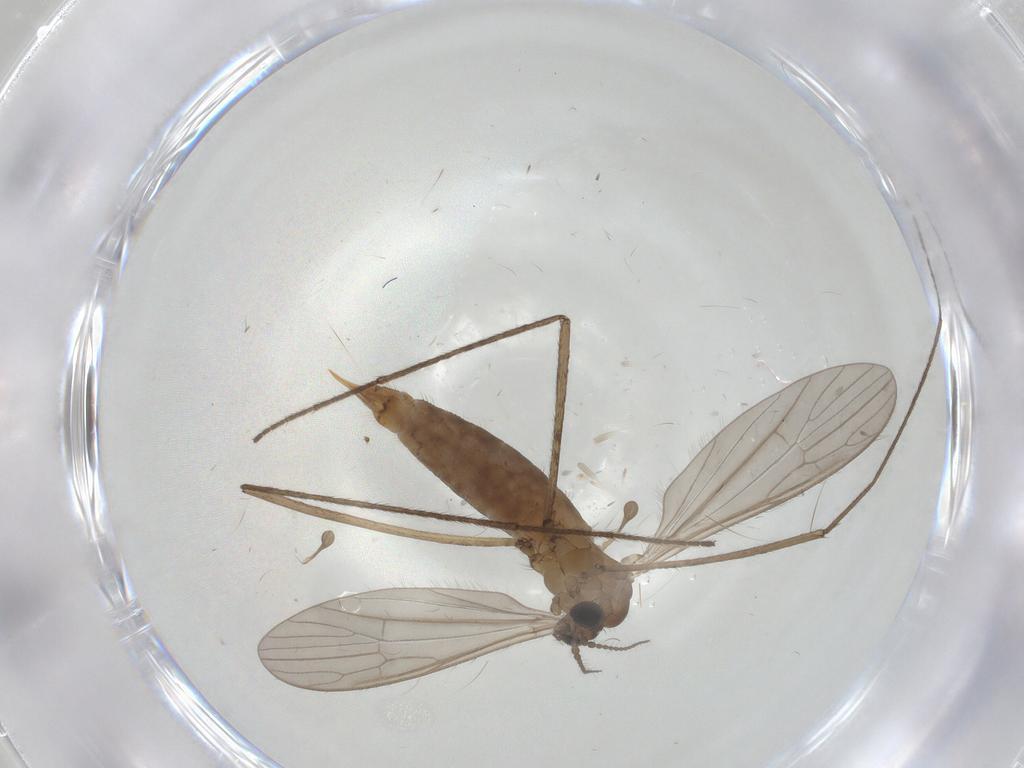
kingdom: Animalia
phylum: Arthropoda
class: Insecta
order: Diptera
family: Limoniidae
